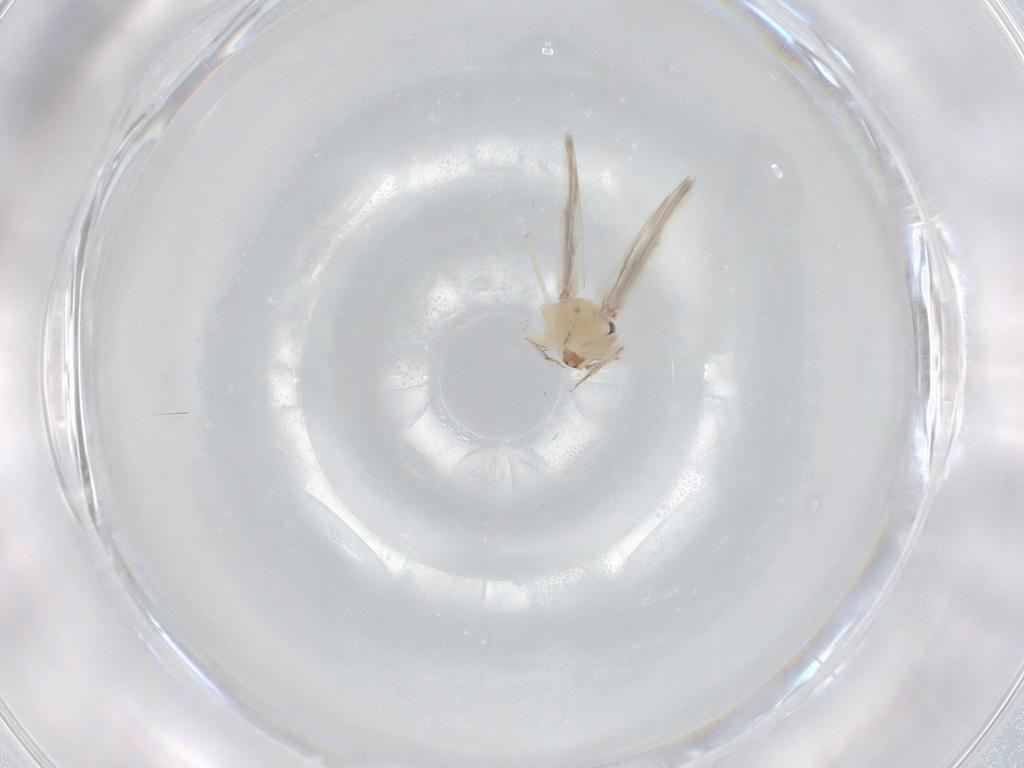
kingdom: Animalia
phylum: Arthropoda
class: Insecta
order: Psocodea
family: Lepidopsocidae
